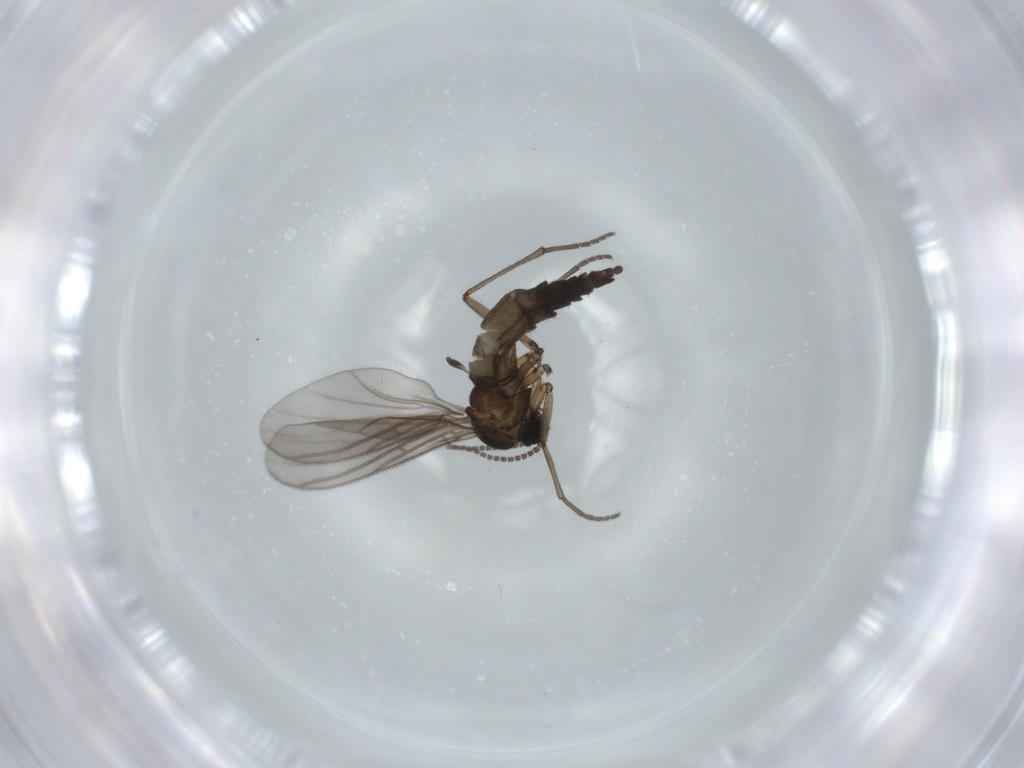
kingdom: Animalia
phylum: Arthropoda
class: Insecta
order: Diptera
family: Sciaridae
